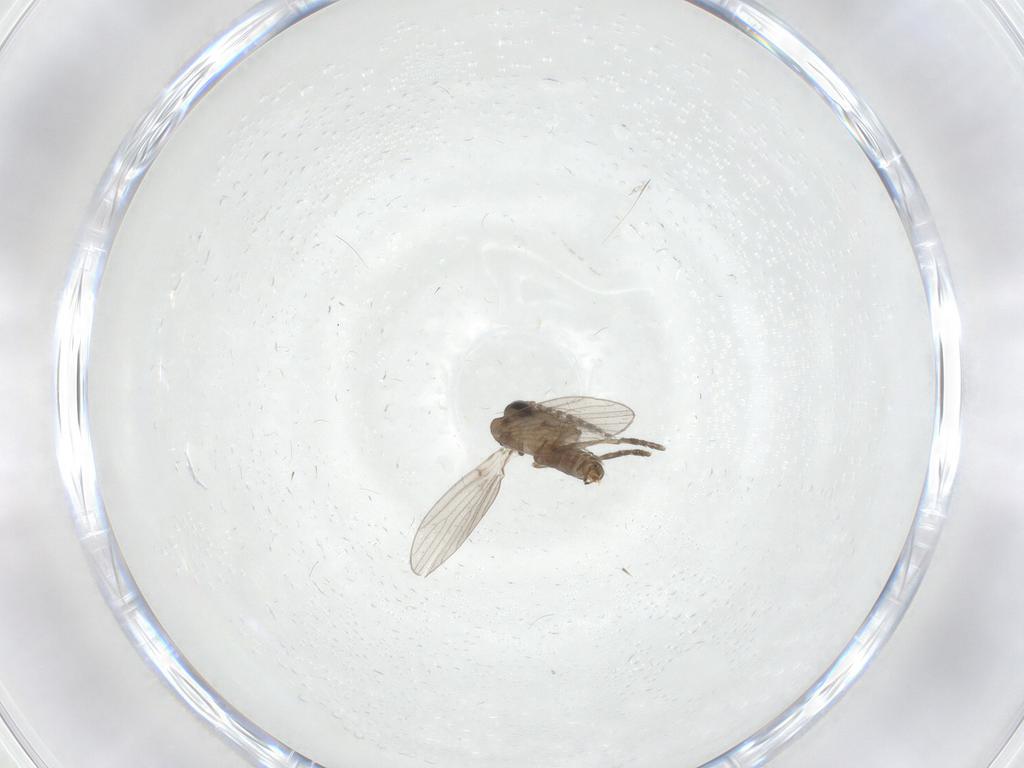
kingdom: Animalia
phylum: Arthropoda
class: Insecta
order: Diptera
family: Psychodidae
